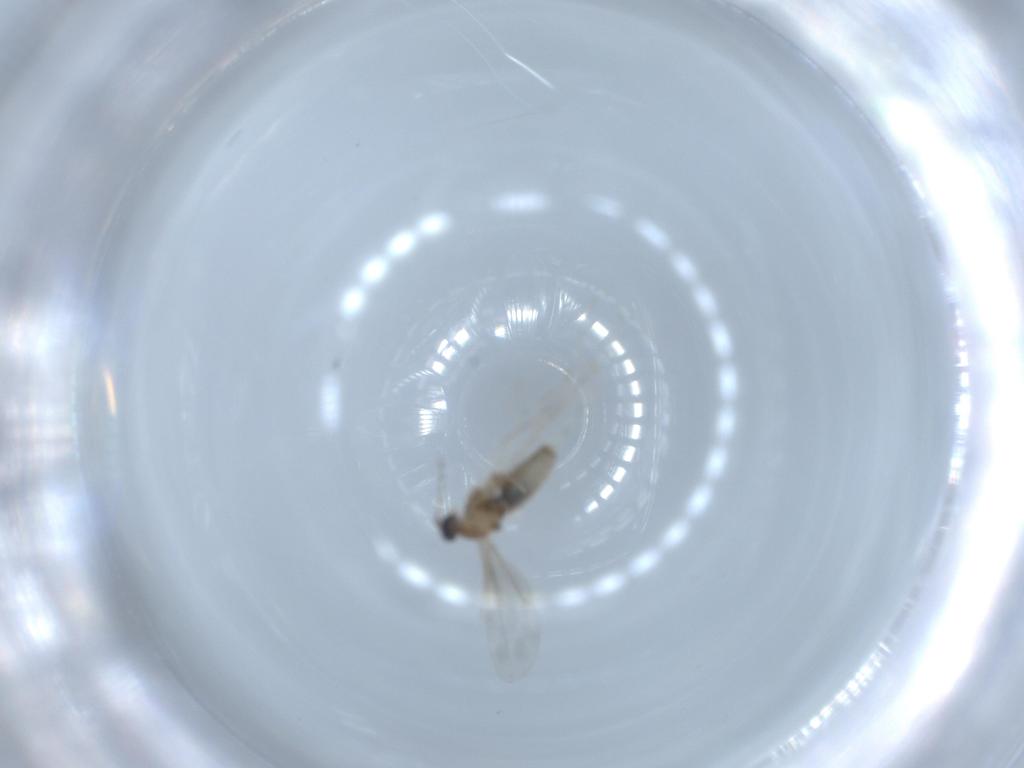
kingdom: Animalia
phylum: Arthropoda
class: Insecta
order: Diptera
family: Cecidomyiidae
